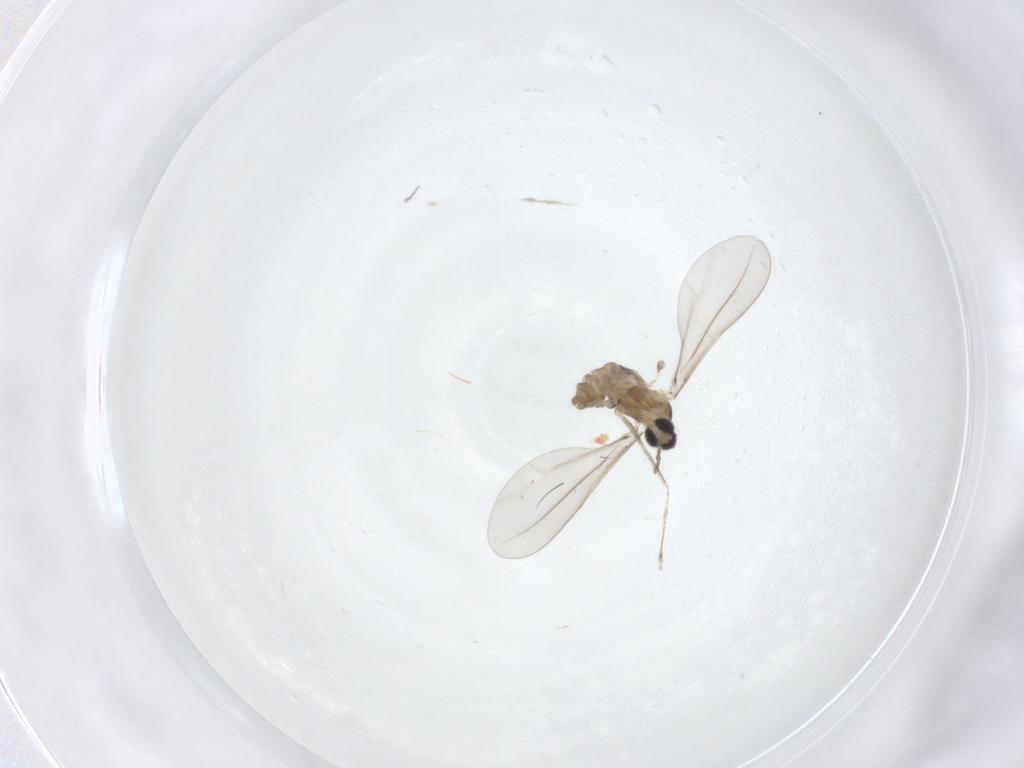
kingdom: Animalia
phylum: Arthropoda
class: Insecta
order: Diptera
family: Cecidomyiidae
